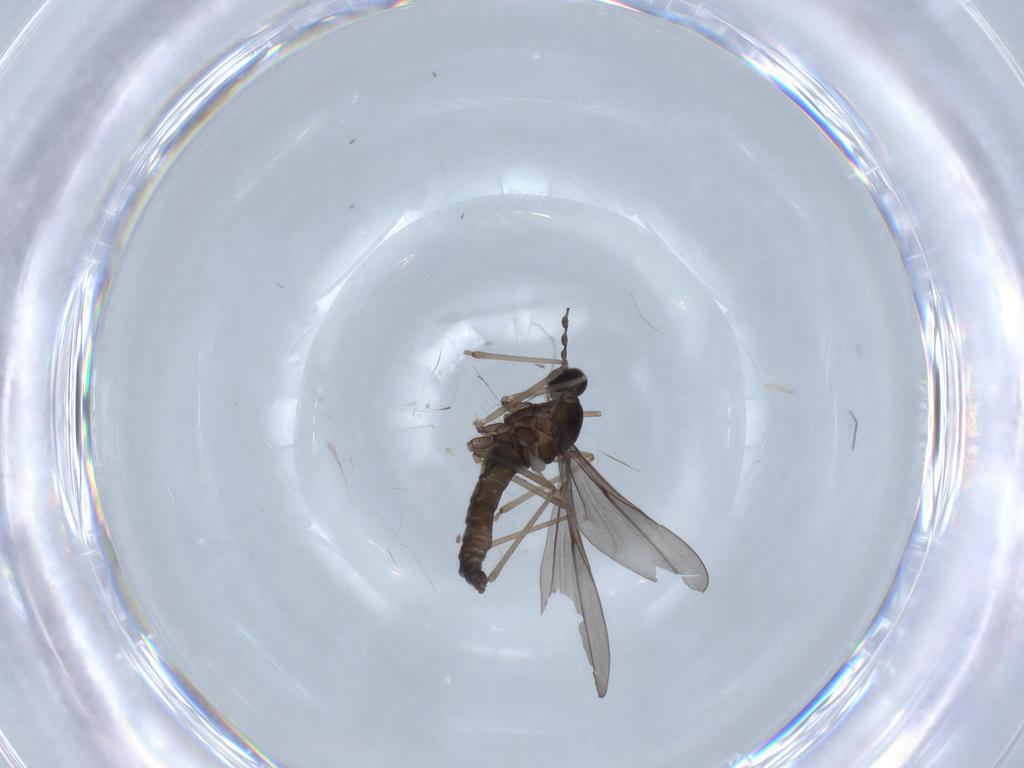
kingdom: Animalia
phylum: Arthropoda
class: Insecta
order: Diptera
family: Cecidomyiidae
